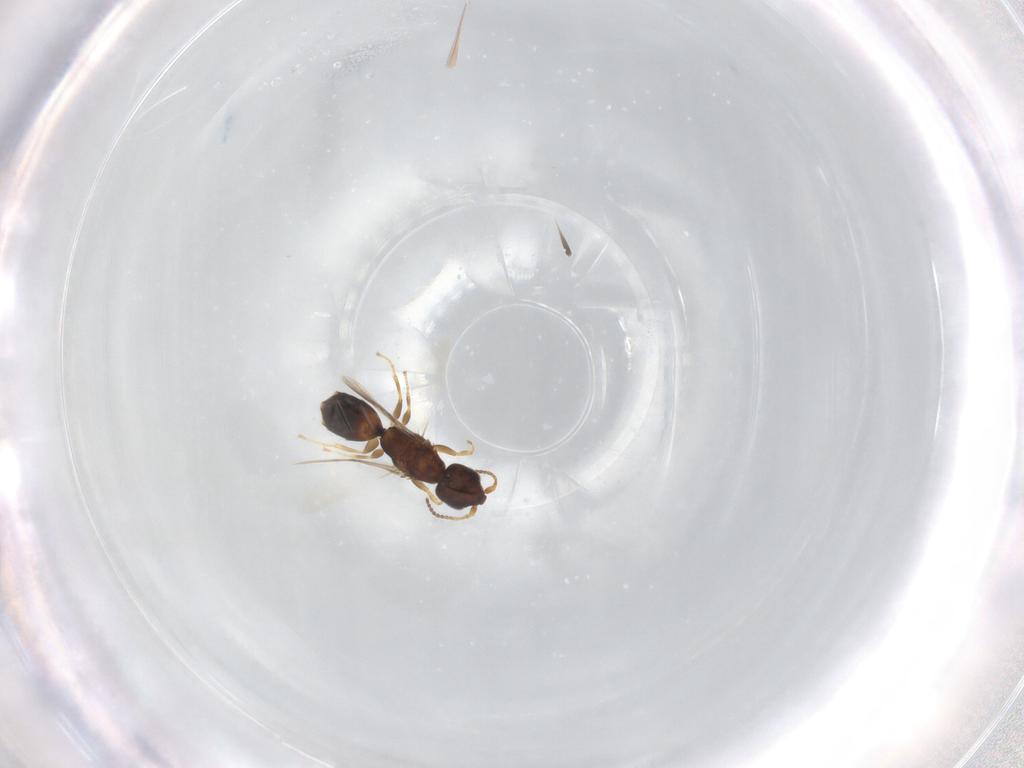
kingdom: Animalia
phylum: Arthropoda
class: Insecta
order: Hymenoptera
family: Bethylidae
